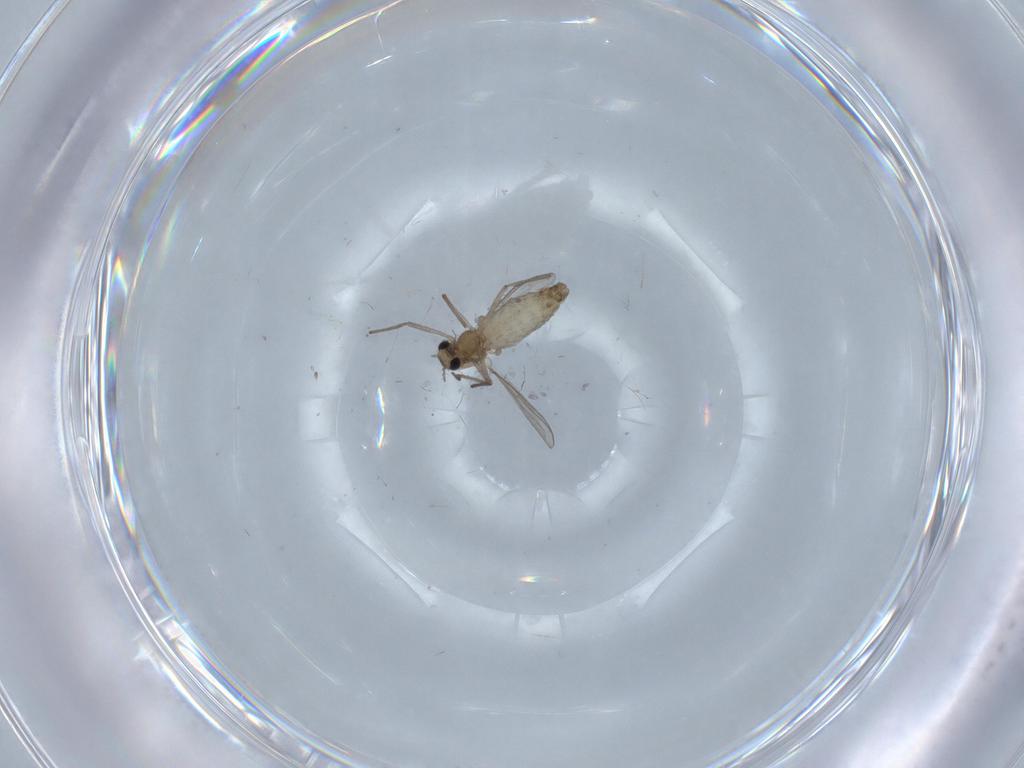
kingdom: Animalia
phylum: Arthropoda
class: Insecta
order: Diptera
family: Chironomidae
